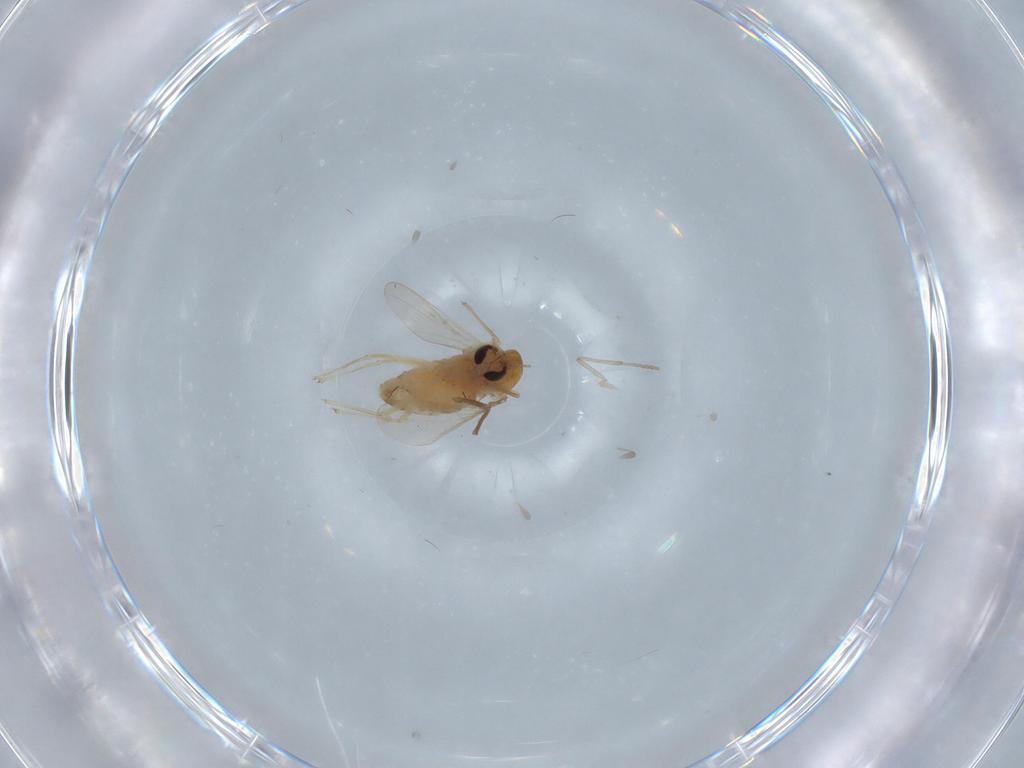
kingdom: Animalia
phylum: Arthropoda
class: Insecta
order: Diptera
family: Chironomidae
